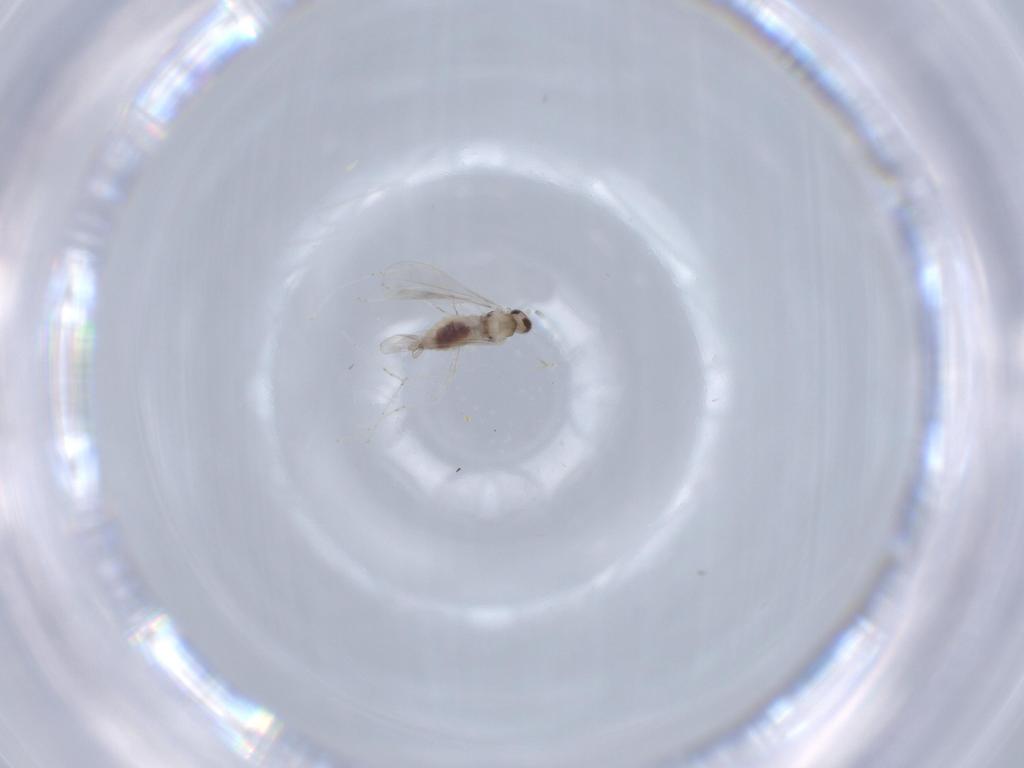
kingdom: Animalia
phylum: Arthropoda
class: Insecta
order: Diptera
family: Cecidomyiidae
